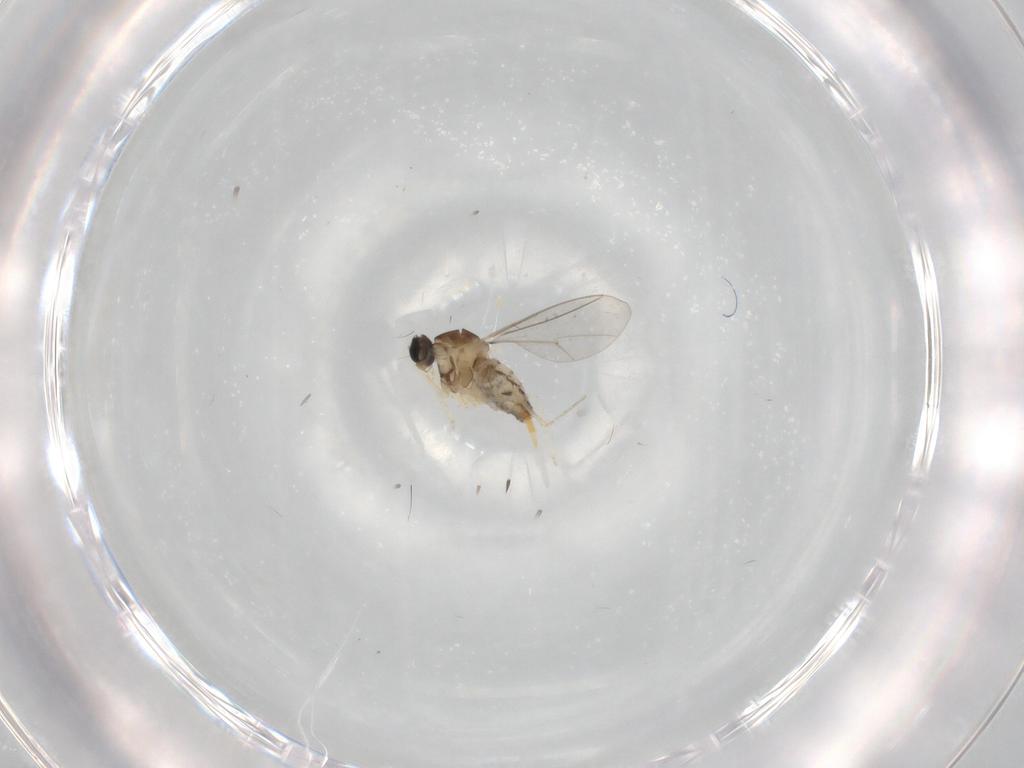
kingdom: Animalia
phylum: Arthropoda
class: Insecta
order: Diptera
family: Cecidomyiidae
